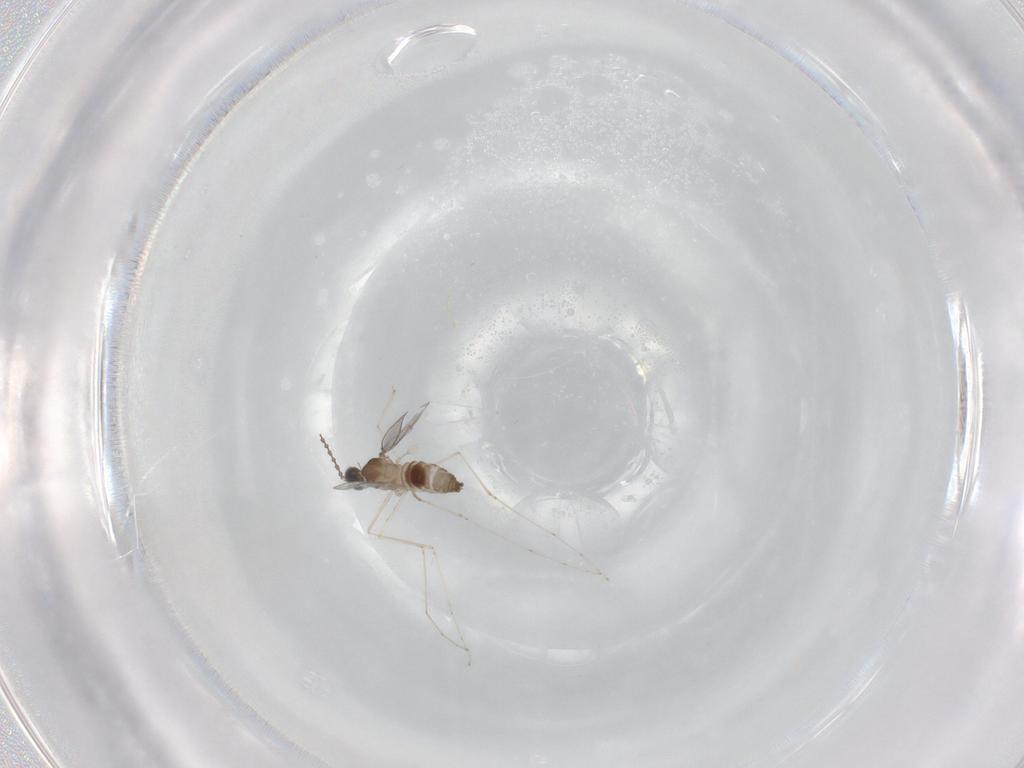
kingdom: Animalia
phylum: Arthropoda
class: Insecta
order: Diptera
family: Cecidomyiidae
